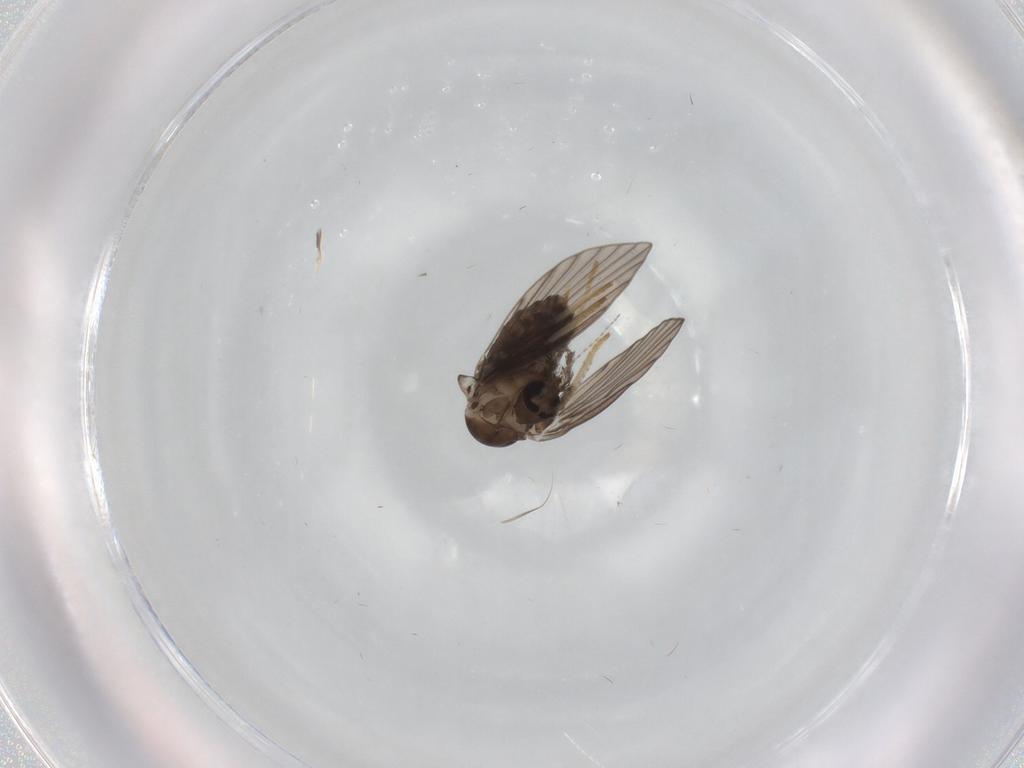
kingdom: Animalia
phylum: Arthropoda
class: Insecta
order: Diptera
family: Psychodidae
